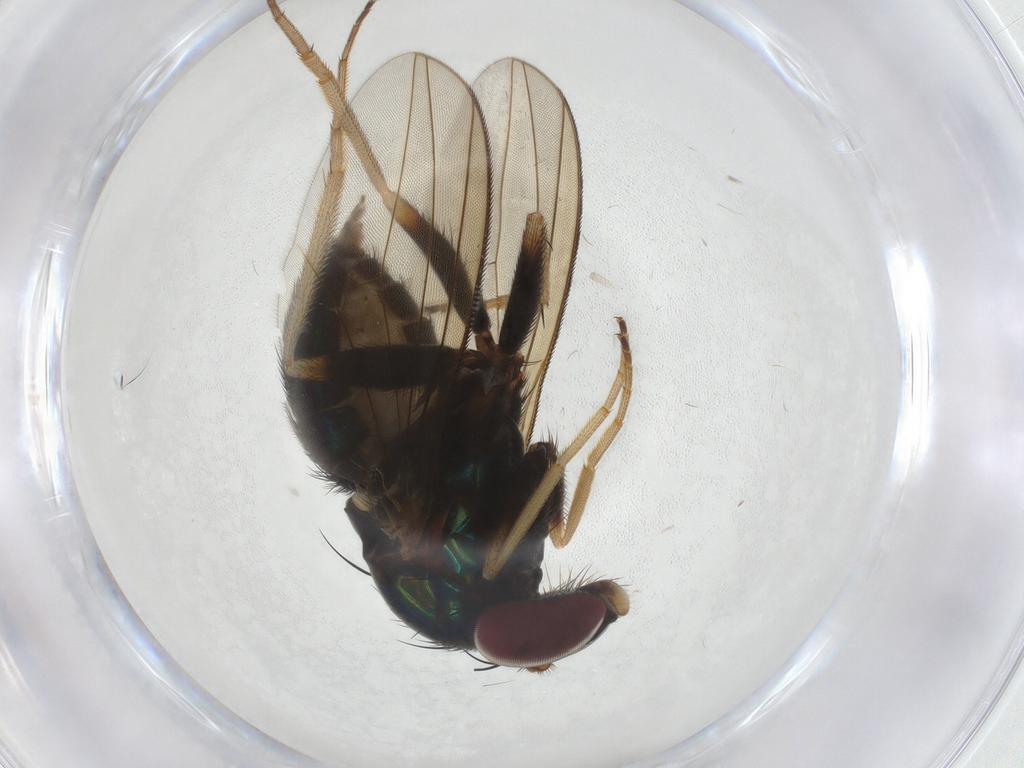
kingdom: Animalia
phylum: Arthropoda
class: Insecta
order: Diptera
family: Dolichopodidae
